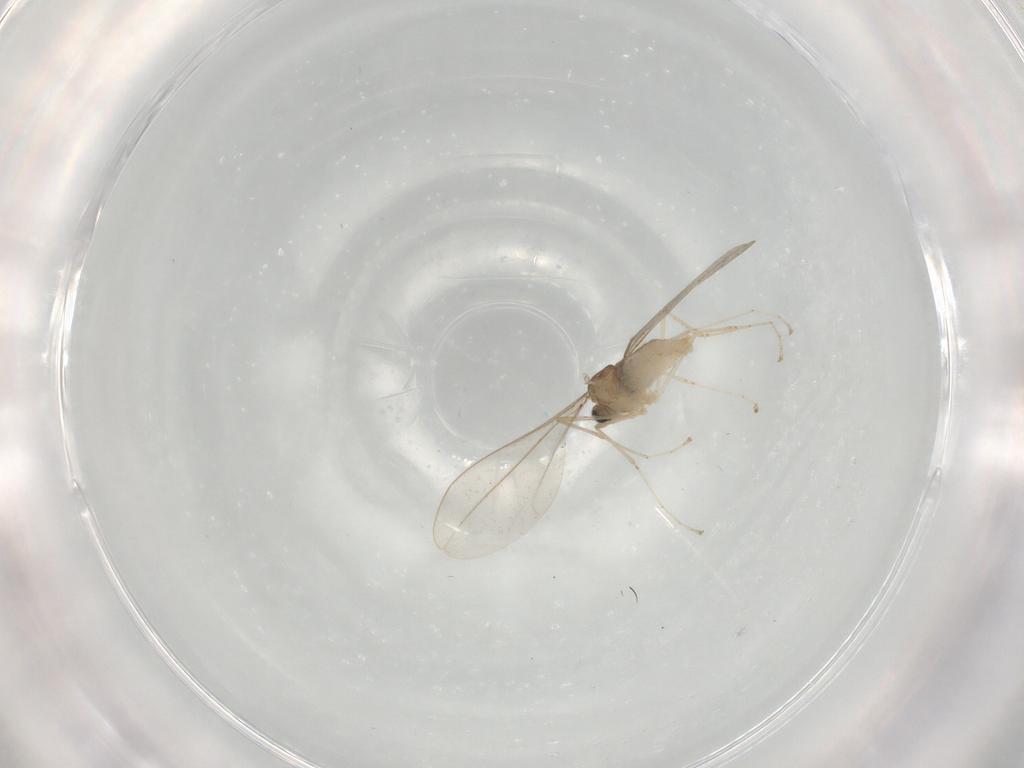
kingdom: Animalia
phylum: Arthropoda
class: Insecta
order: Diptera
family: Cecidomyiidae
